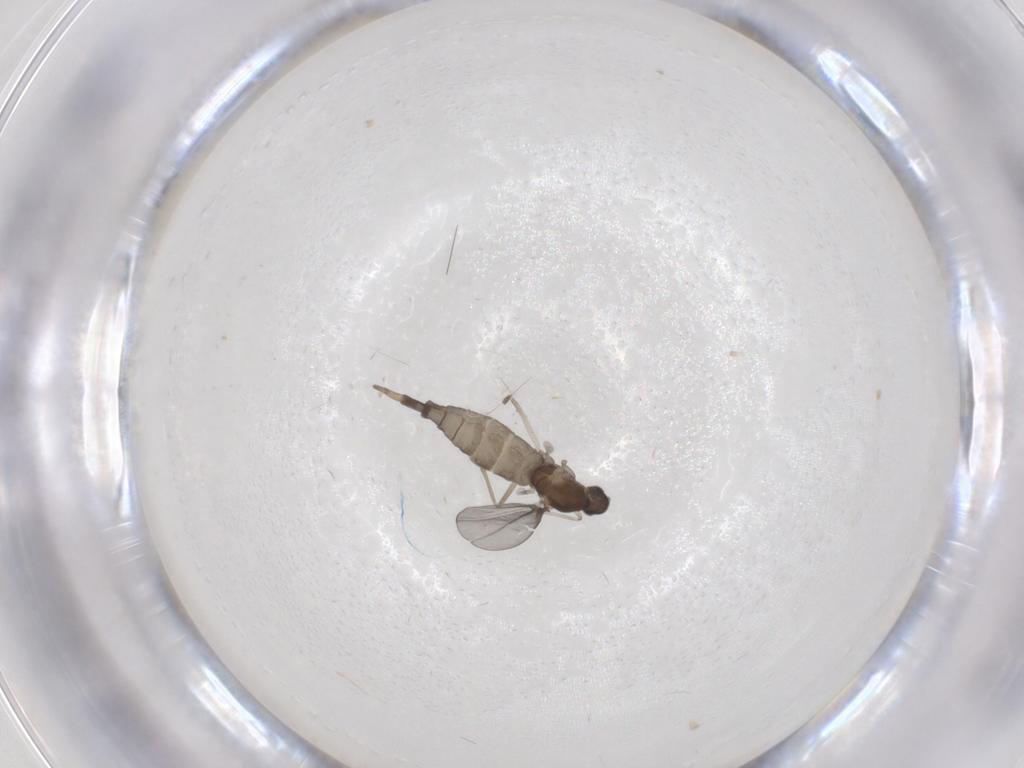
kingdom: Animalia
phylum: Arthropoda
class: Insecta
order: Diptera
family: Cecidomyiidae
